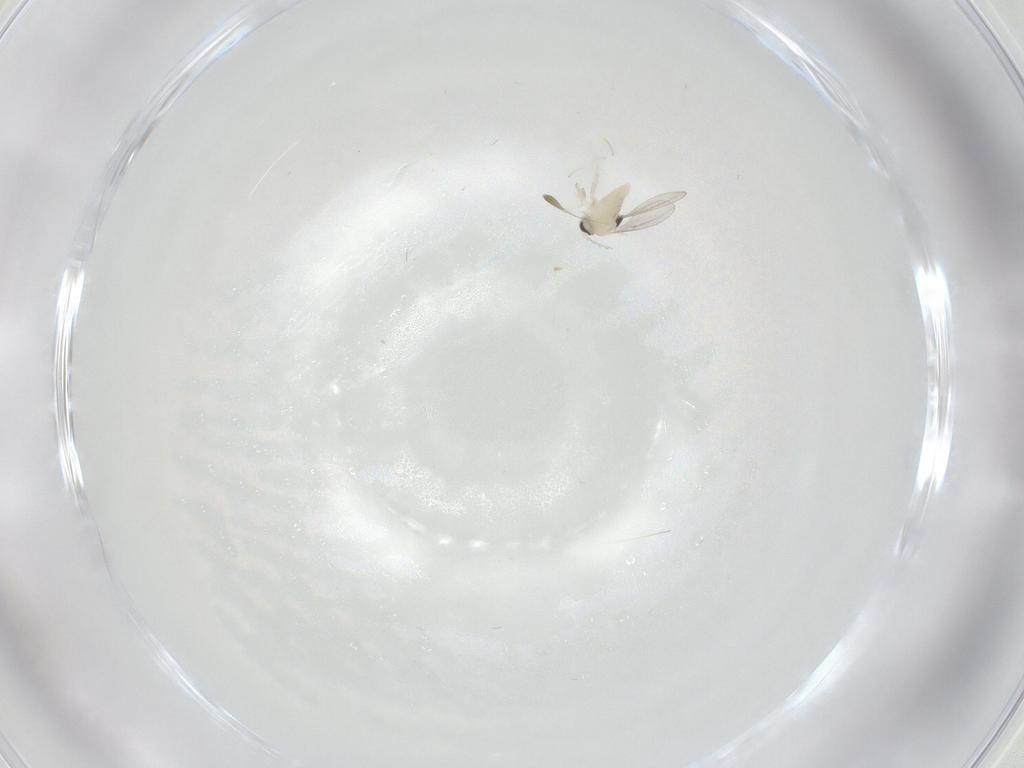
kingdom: Animalia
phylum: Arthropoda
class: Insecta
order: Diptera
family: Cecidomyiidae
